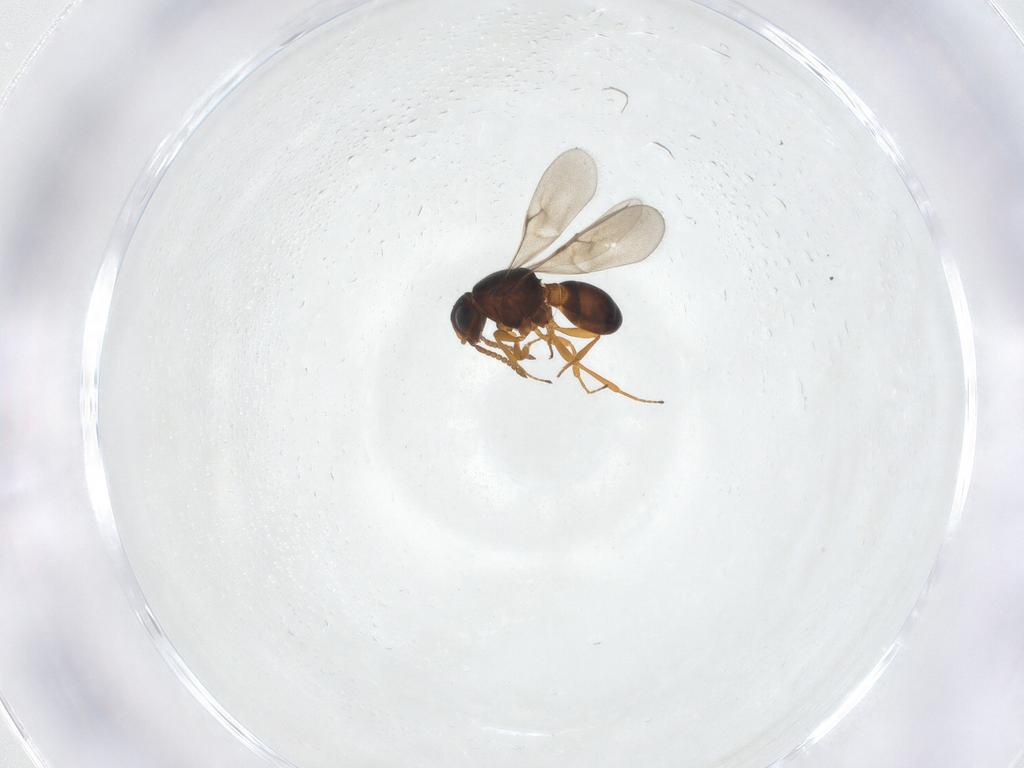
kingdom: Animalia
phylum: Arthropoda
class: Arachnida
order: Araneae
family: Pholcidae
